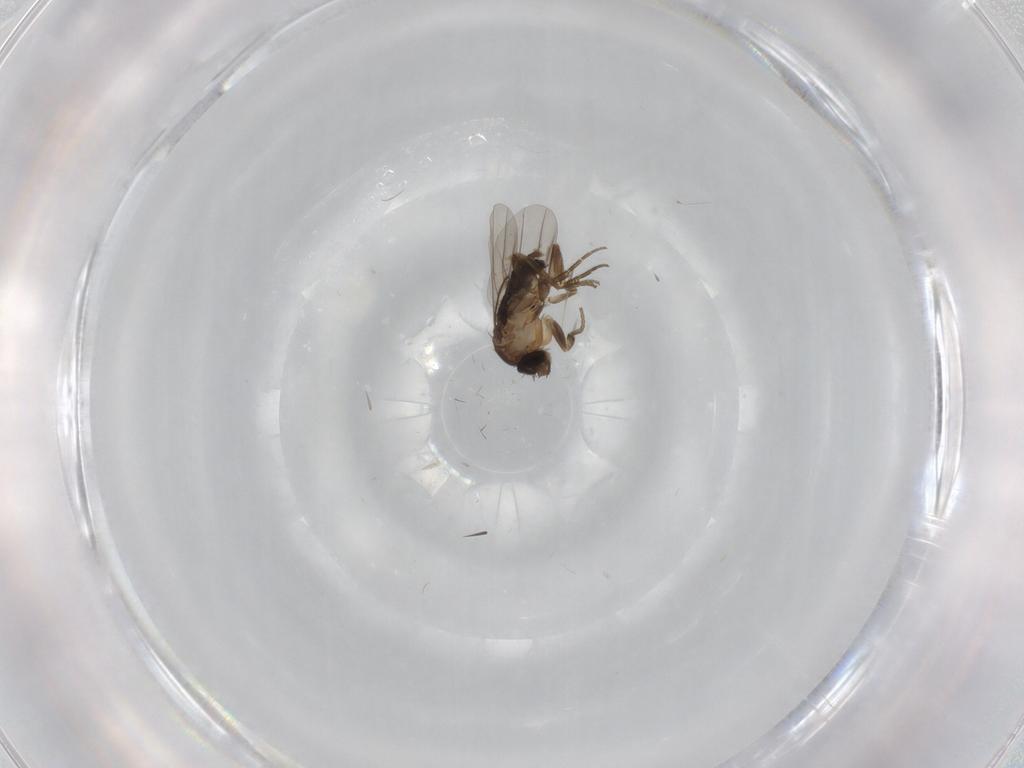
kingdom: Animalia
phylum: Arthropoda
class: Insecta
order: Diptera
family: Phoridae
